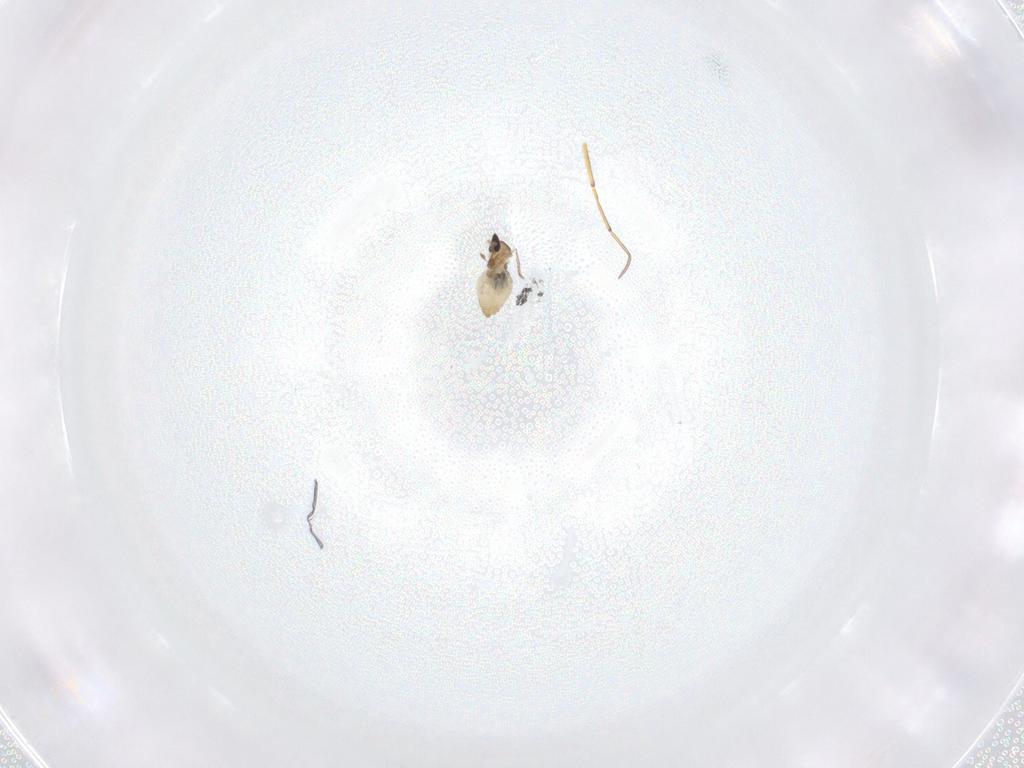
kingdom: Animalia
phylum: Arthropoda
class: Insecta
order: Diptera
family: Cecidomyiidae
